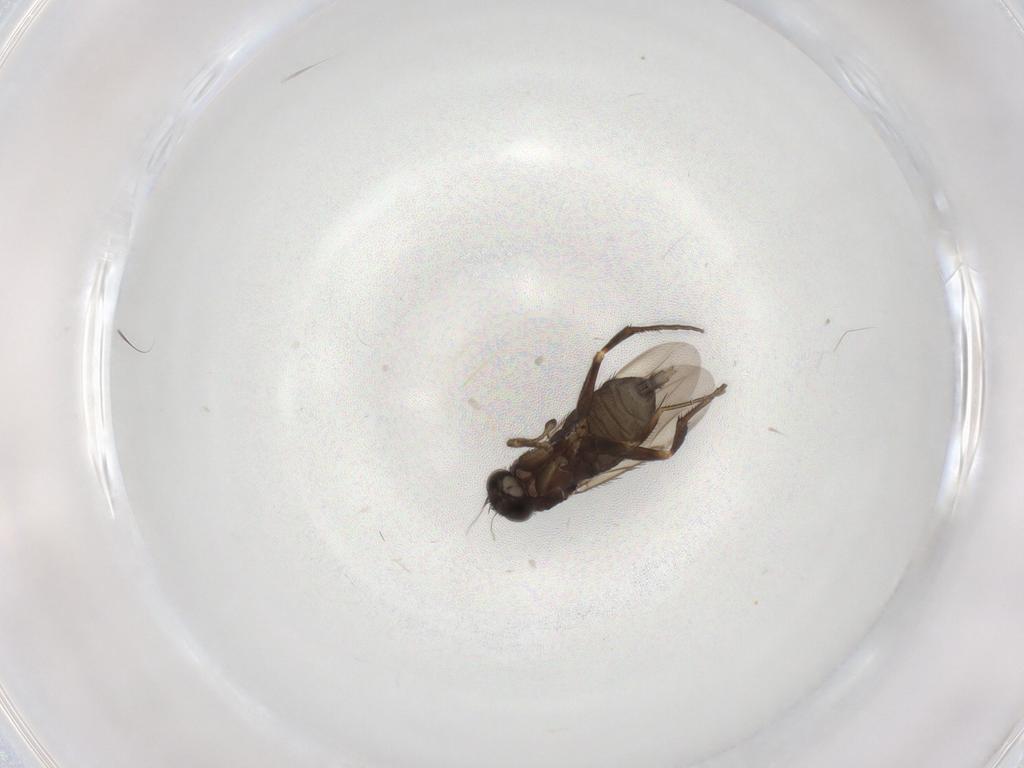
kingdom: Animalia
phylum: Arthropoda
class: Insecta
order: Diptera
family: Phoridae
